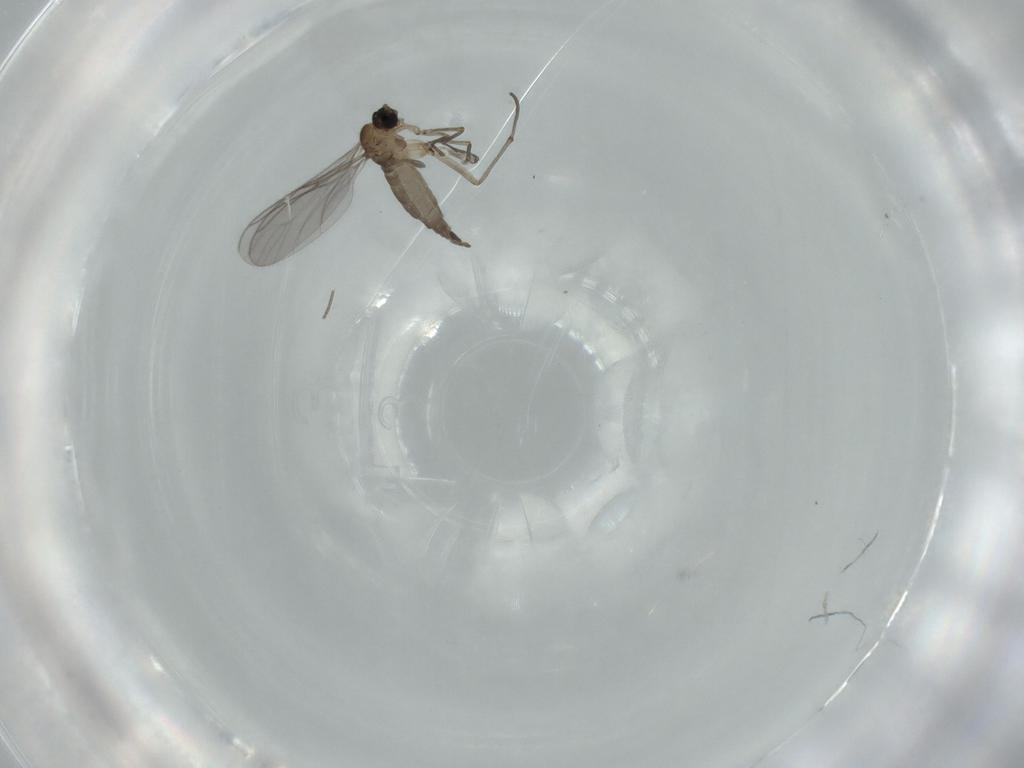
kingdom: Animalia
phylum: Arthropoda
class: Insecta
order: Diptera
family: Sciaridae
